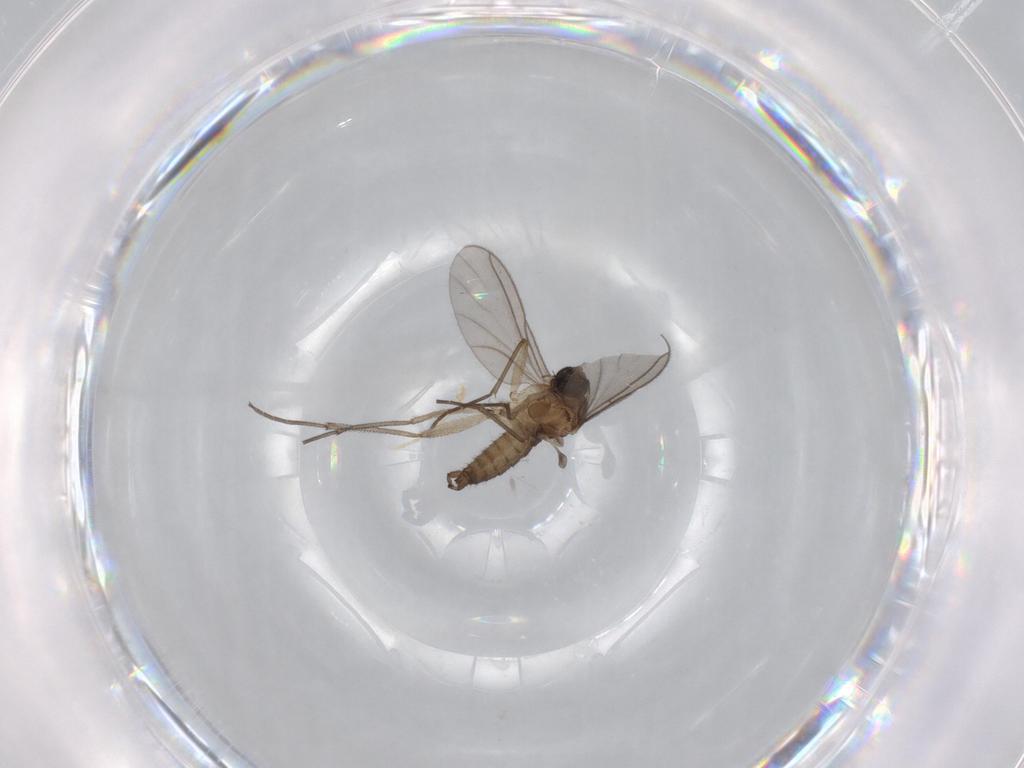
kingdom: Animalia
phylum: Arthropoda
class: Insecta
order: Diptera
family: Sciaridae
